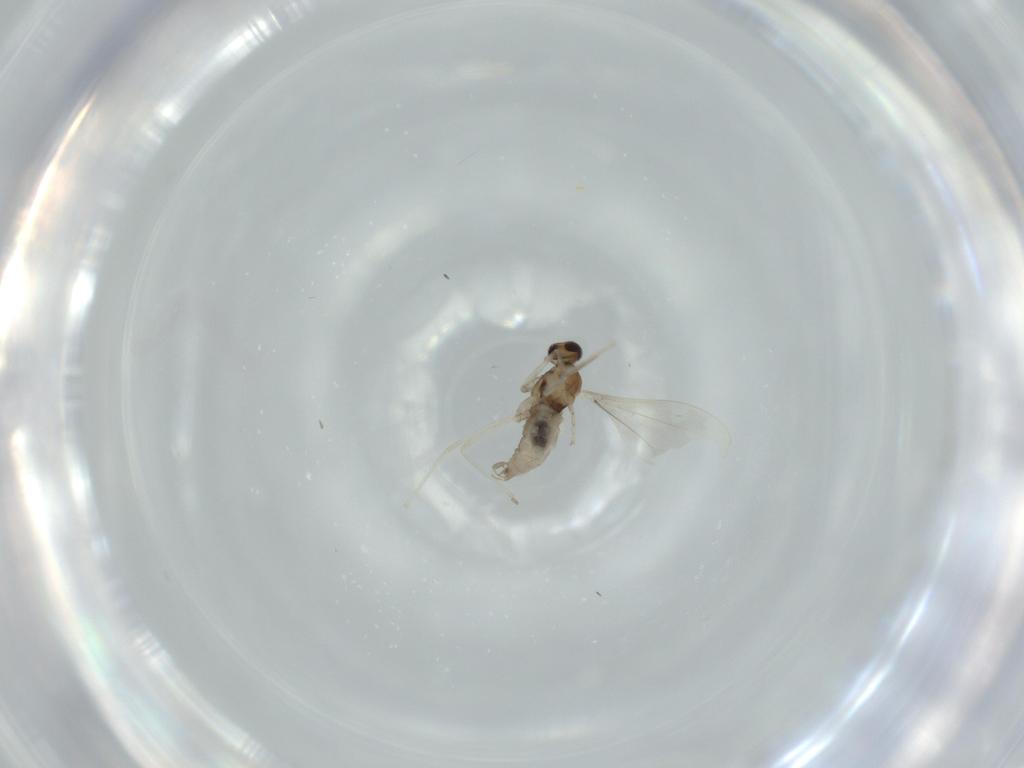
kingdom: Animalia
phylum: Arthropoda
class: Insecta
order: Diptera
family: Cecidomyiidae
